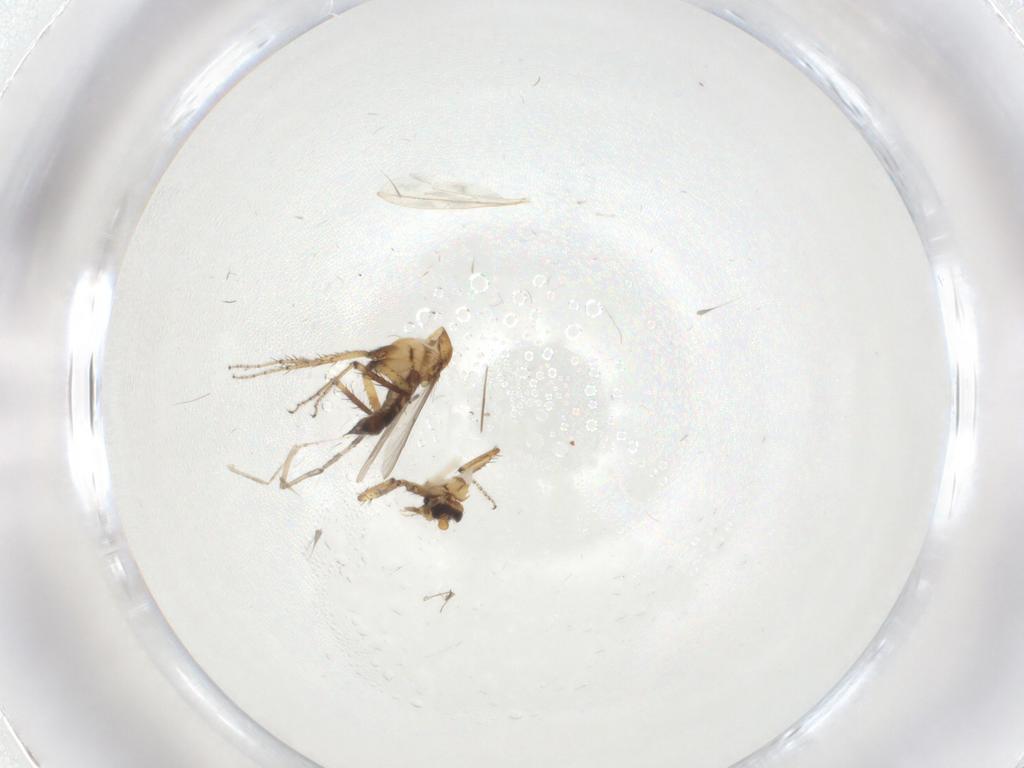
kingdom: Animalia
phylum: Arthropoda
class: Insecta
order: Diptera
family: Ceratopogonidae
